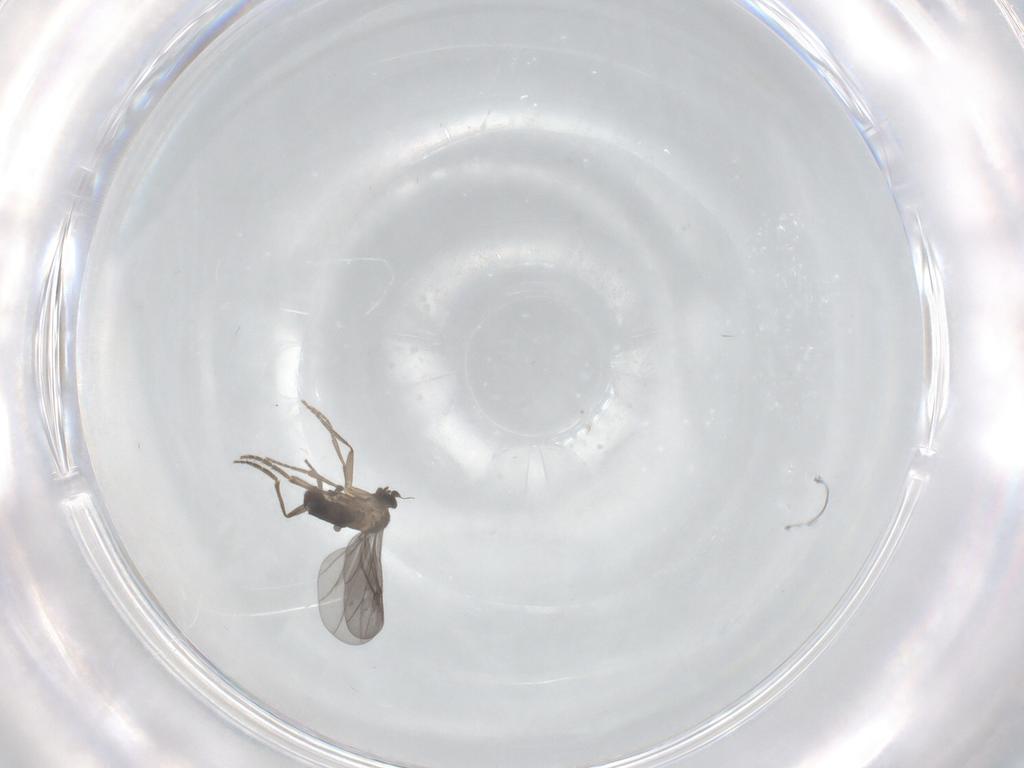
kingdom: Animalia
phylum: Arthropoda
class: Insecta
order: Diptera
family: Phoridae
